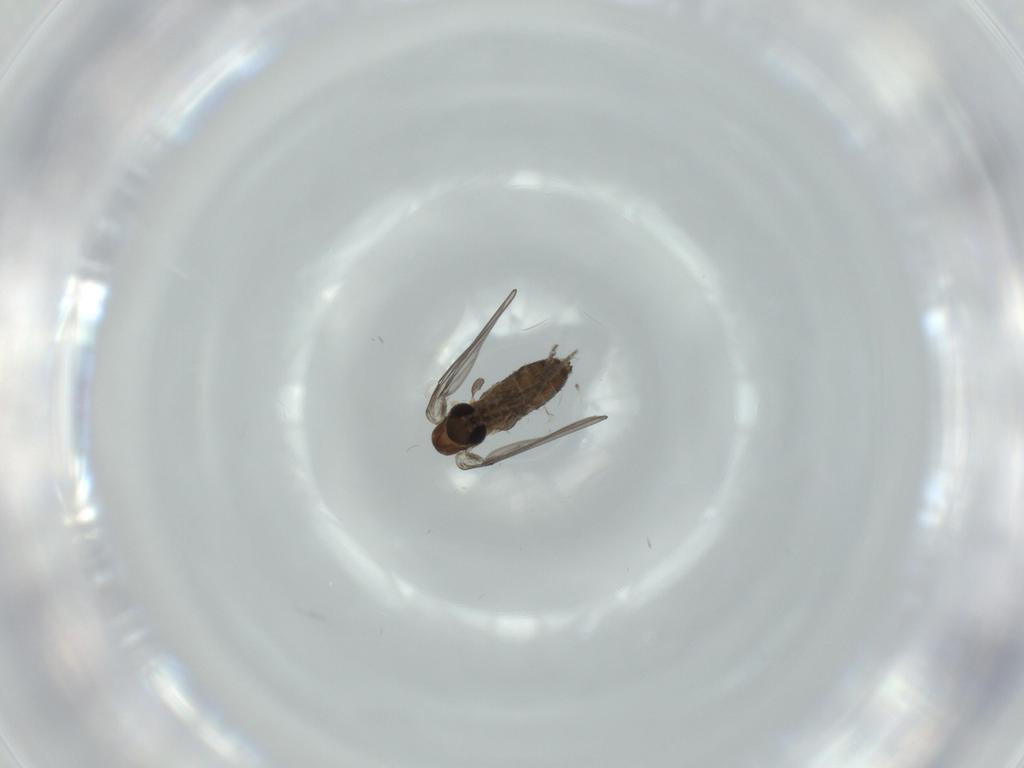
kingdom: Animalia
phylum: Arthropoda
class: Insecta
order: Diptera
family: Psychodidae
